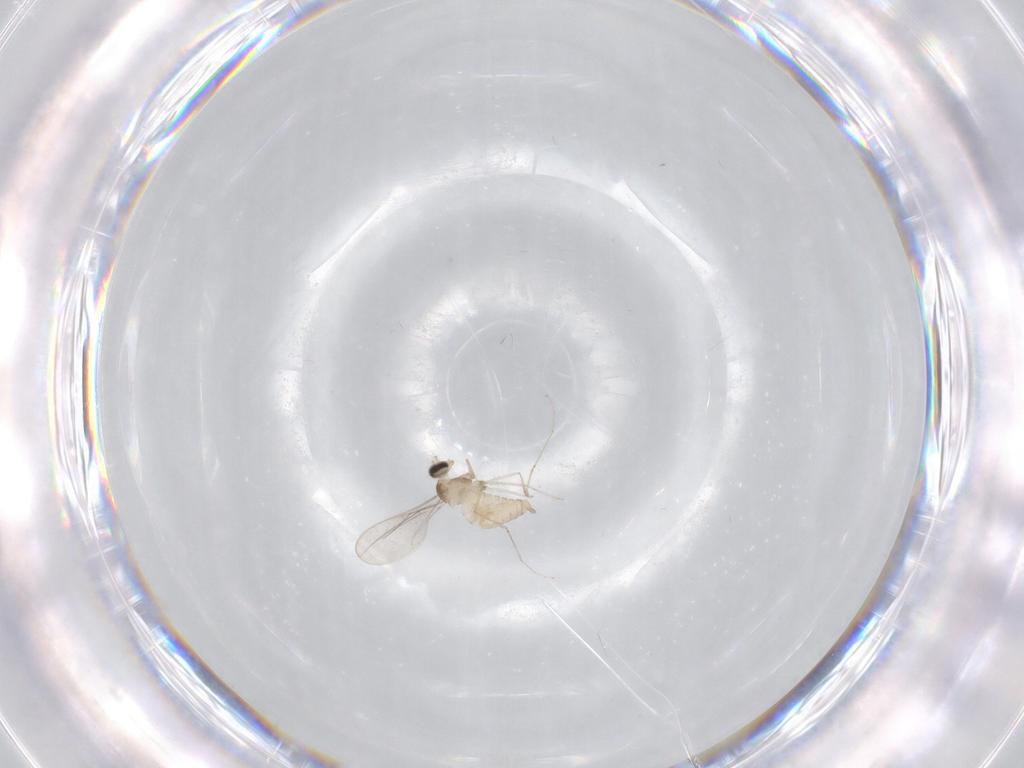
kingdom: Animalia
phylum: Arthropoda
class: Insecta
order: Diptera
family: Cecidomyiidae
